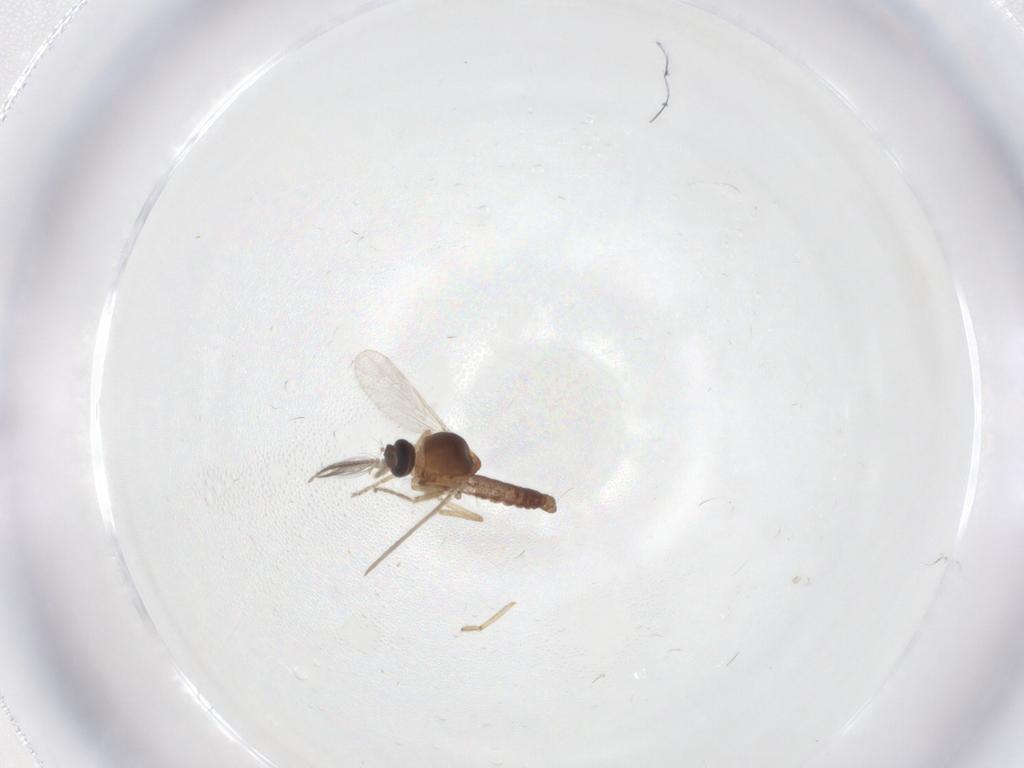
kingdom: Animalia
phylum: Arthropoda
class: Insecta
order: Diptera
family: Ceratopogonidae
